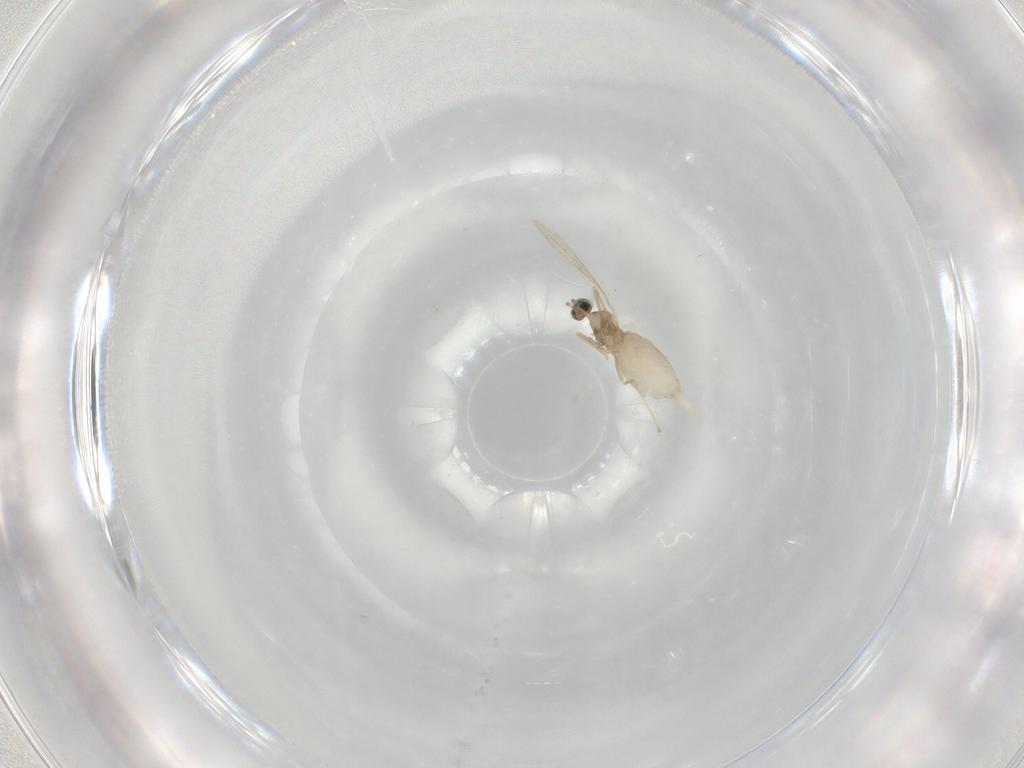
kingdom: Animalia
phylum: Arthropoda
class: Insecta
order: Diptera
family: Cecidomyiidae
